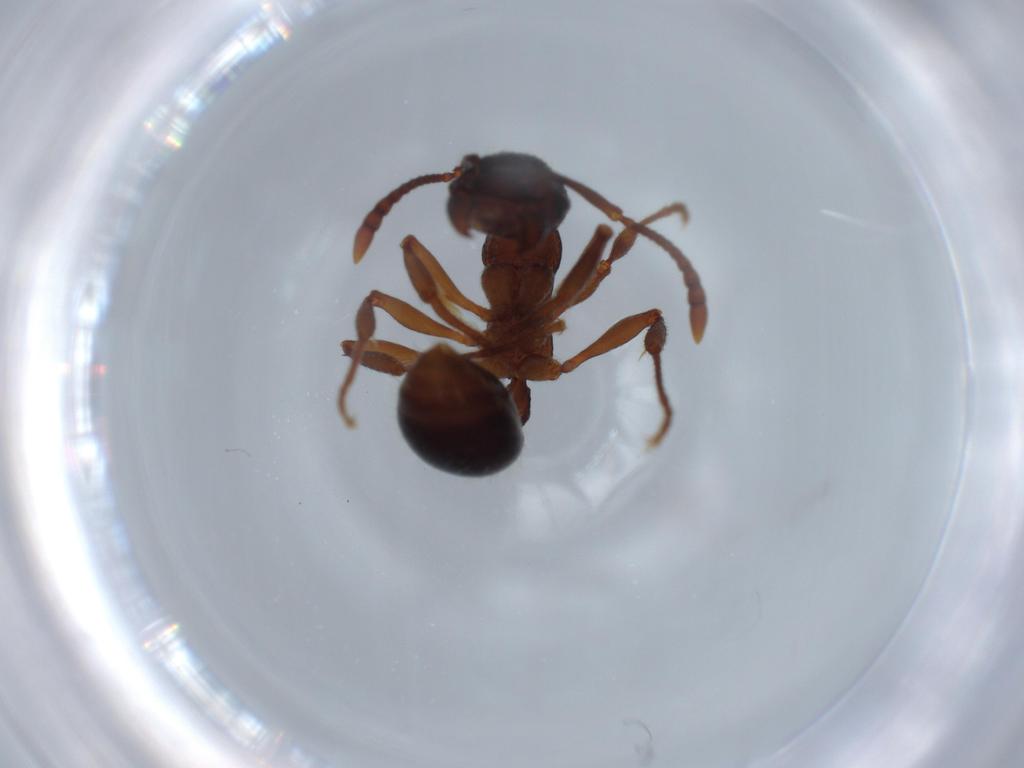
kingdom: Animalia
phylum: Arthropoda
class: Insecta
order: Hymenoptera
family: Formicidae
